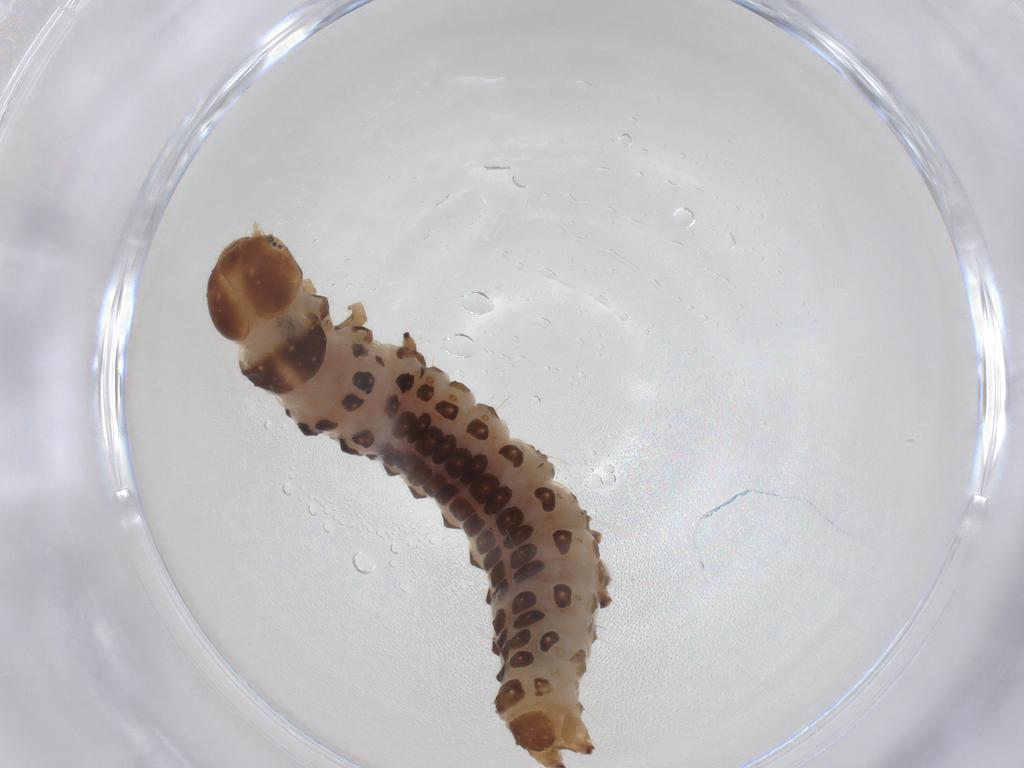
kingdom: Animalia
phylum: Arthropoda
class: Insecta
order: Lepidoptera
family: Crambidae
